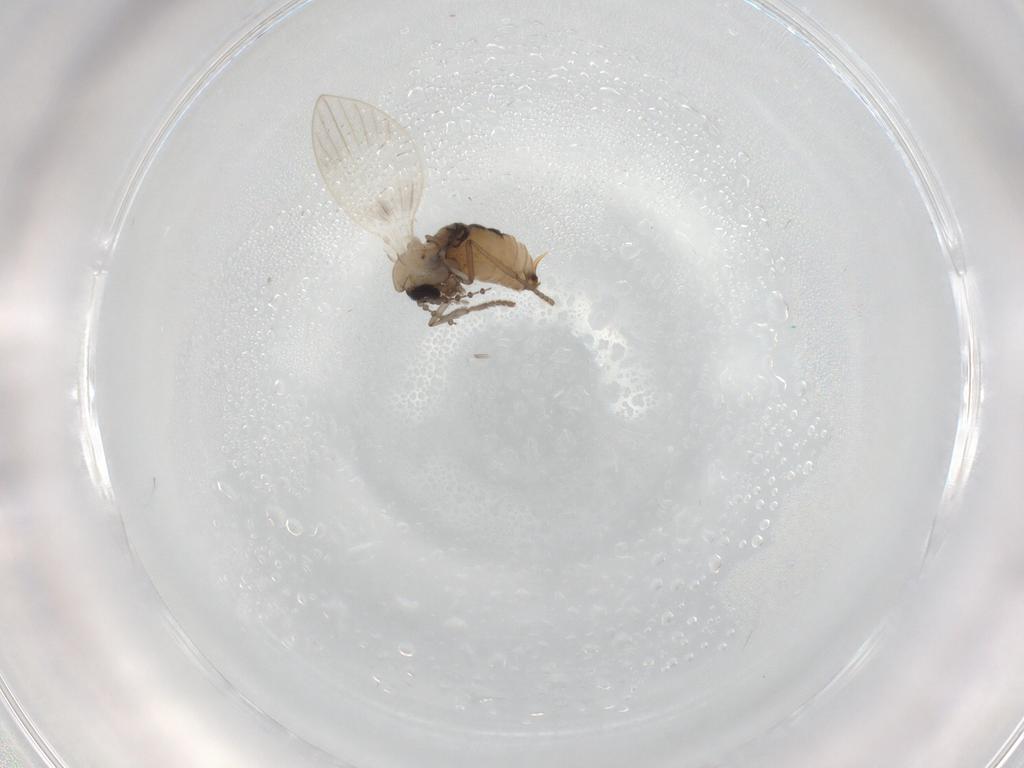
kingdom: Animalia
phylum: Arthropoda
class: Insecta
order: Diptera
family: Psychodidae
